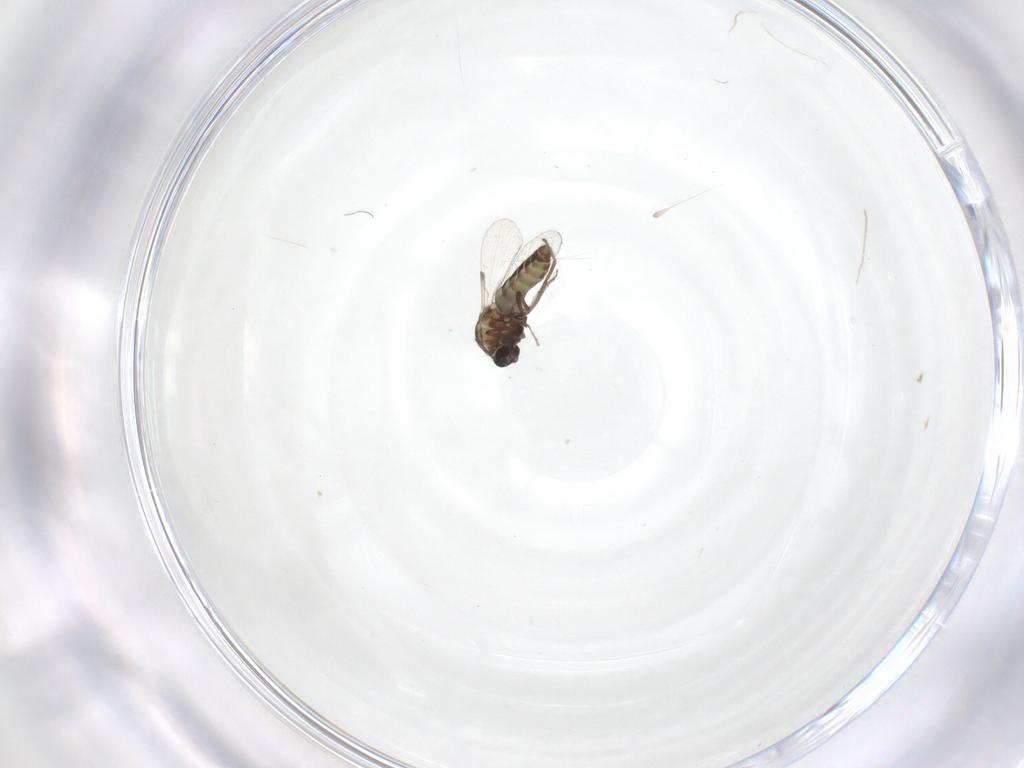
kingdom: Animalia
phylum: Arthropoda
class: Insecta
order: Diptera
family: Ceratopogonidae
